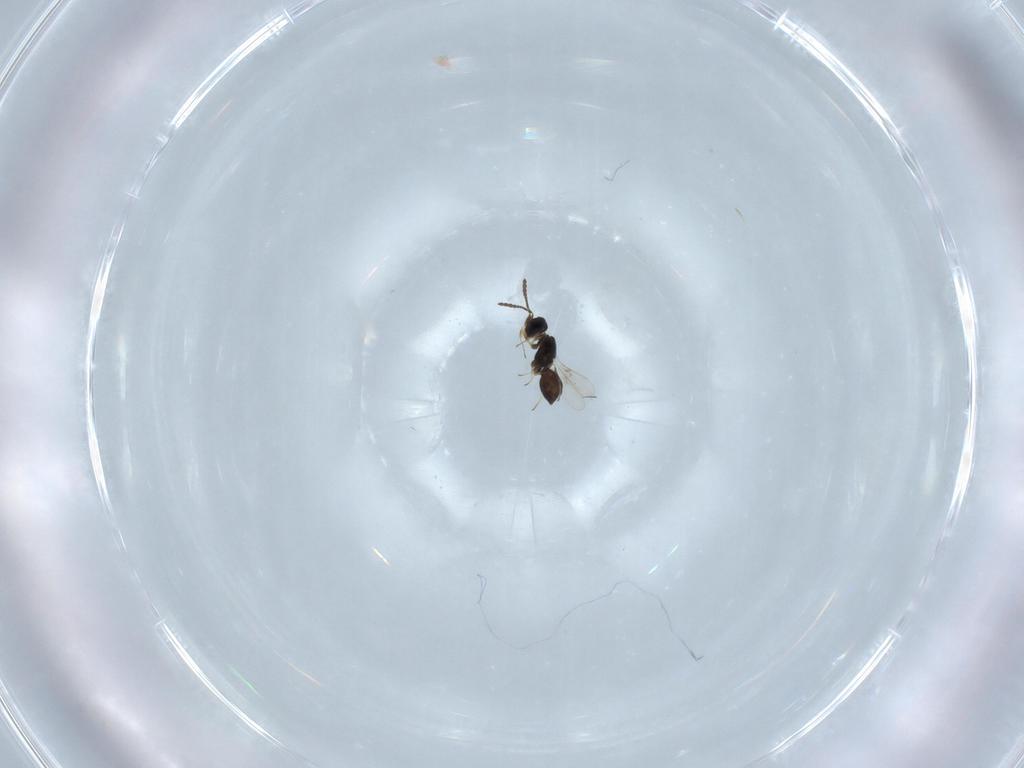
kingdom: Animalia
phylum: Arthropoda
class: Insecta
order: Hymenoptera
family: Scelionidae
